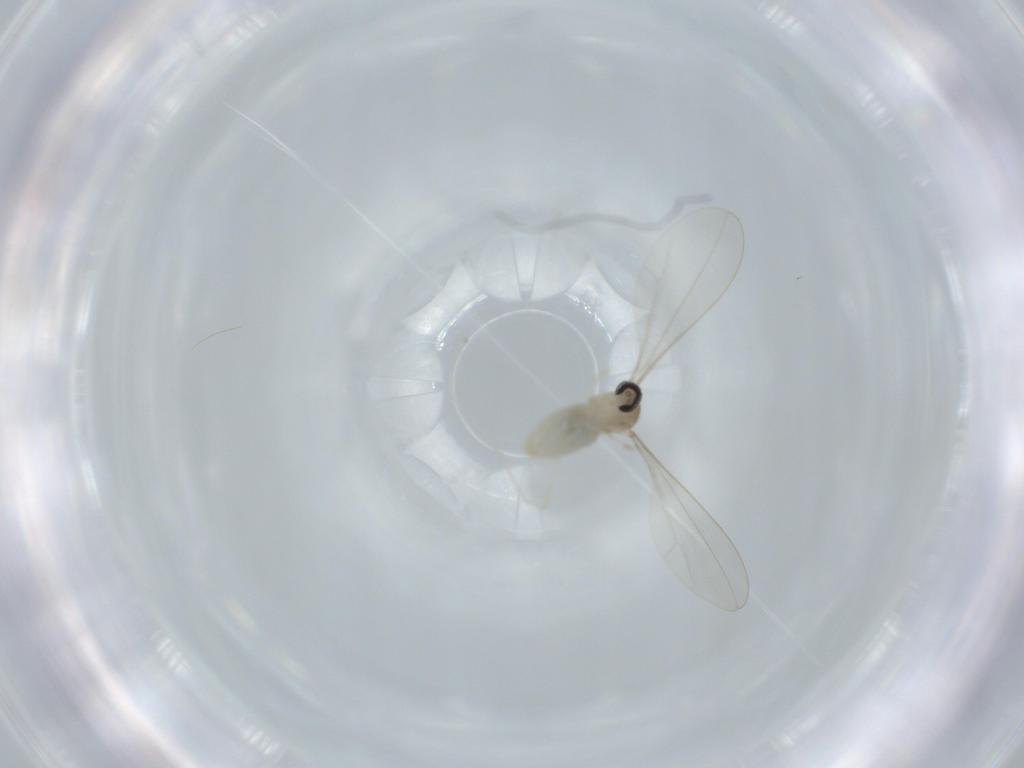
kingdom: Animalia
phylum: Arthropoda
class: Insecta
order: Diptera
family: Cecidomyiidae
